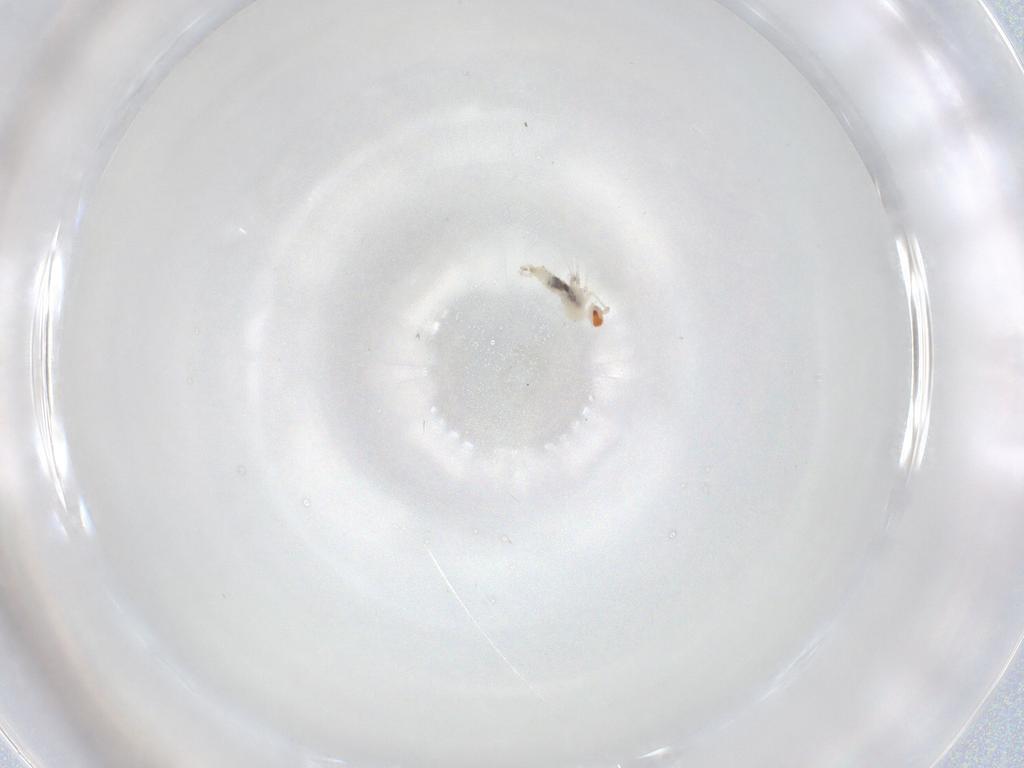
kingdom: Animalia
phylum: Arthropoda
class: Insecta
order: Diptera
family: Cecidomyiidae
